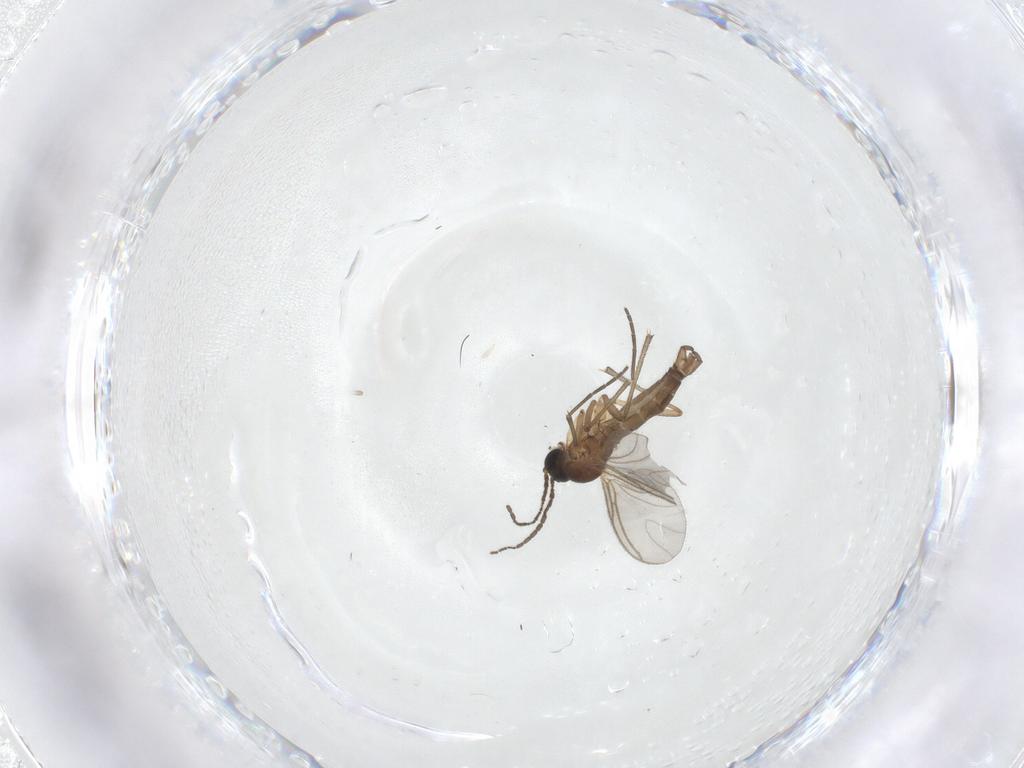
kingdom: Animalia
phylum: Arthropoda
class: Insecta
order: Diptera
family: Sciaridae
